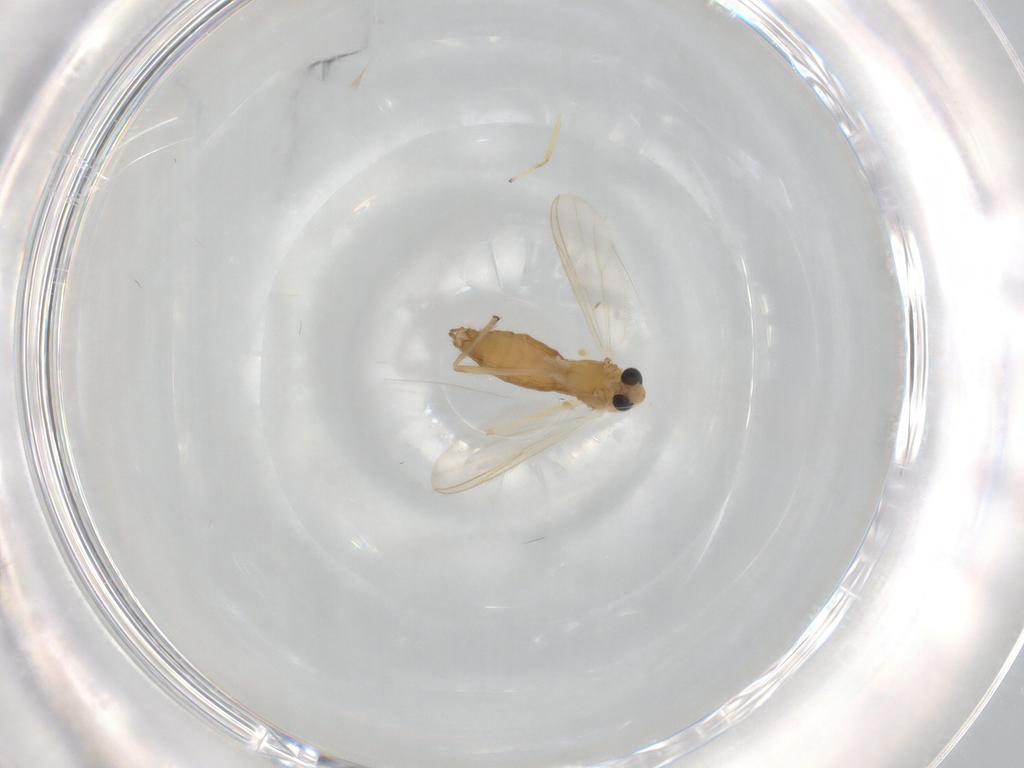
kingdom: Animalia
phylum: Arthropoda
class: Insecta
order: Diptera
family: Chironomidae
